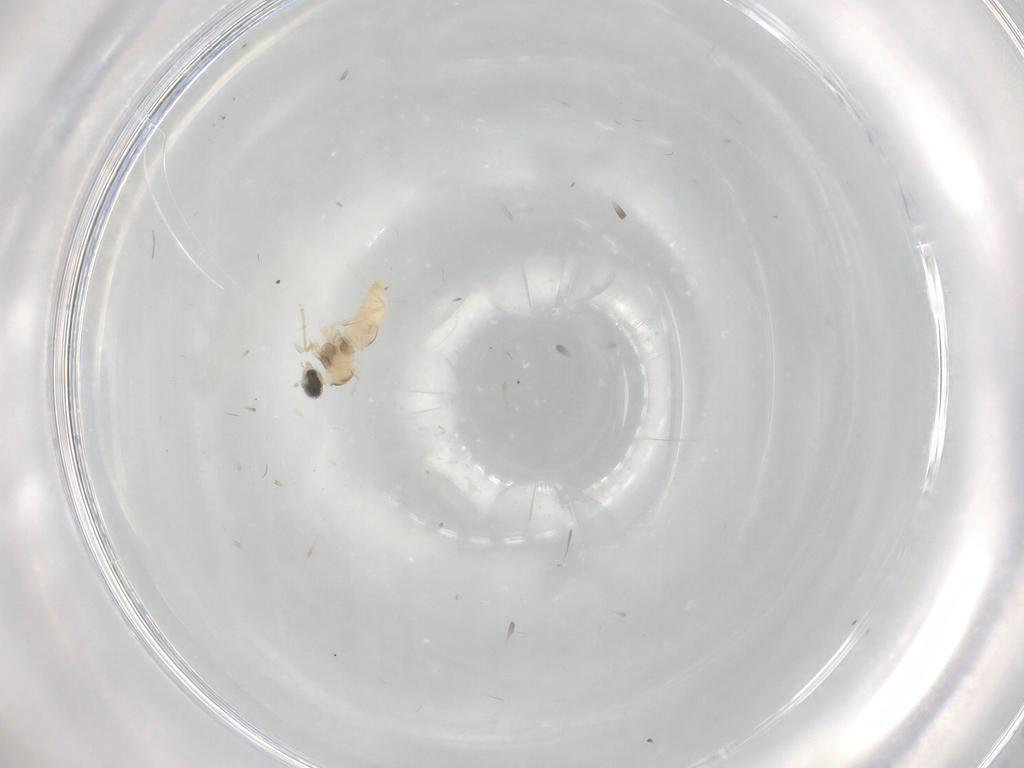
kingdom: Animalia
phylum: Arthropoda
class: Insecta
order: Diptera
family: Cecidomyiidae
